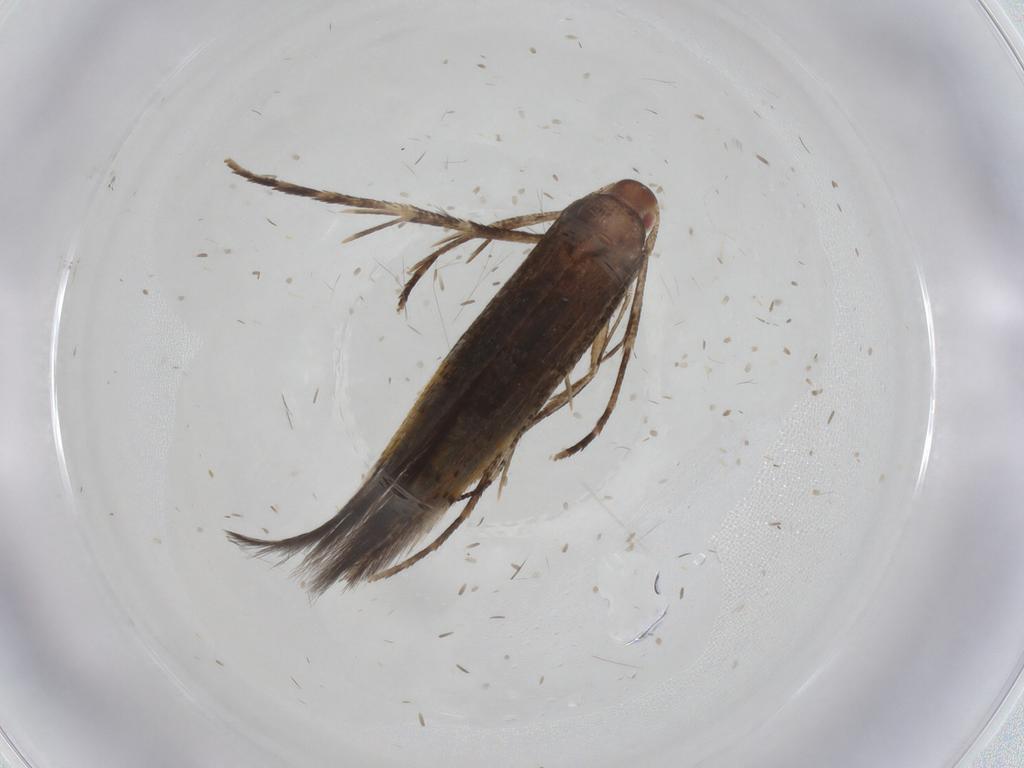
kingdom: Animalia
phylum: Arthropoda
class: Insecta
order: Lepidoptera
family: Cosmopterigidae
